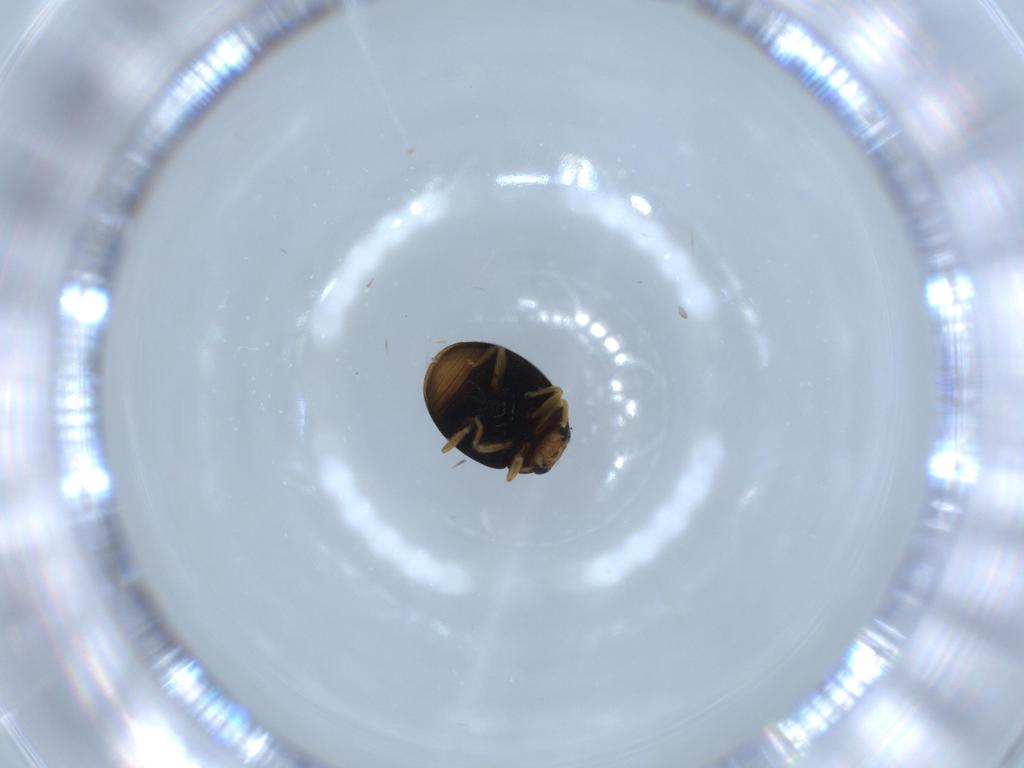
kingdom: Animalia
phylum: Arthropoda
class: Insecta
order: Coleoptera
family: Coccinellidae
